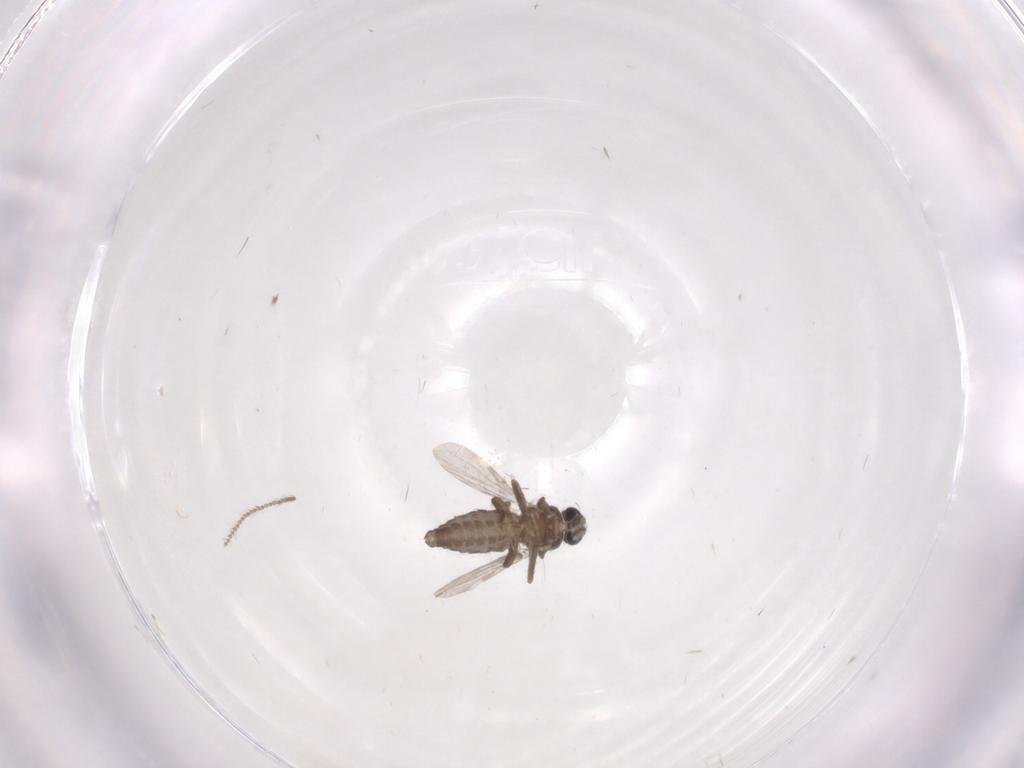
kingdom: Animalia
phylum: Arthropoda
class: Insecta
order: Diptera
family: Ceratopogonidae
